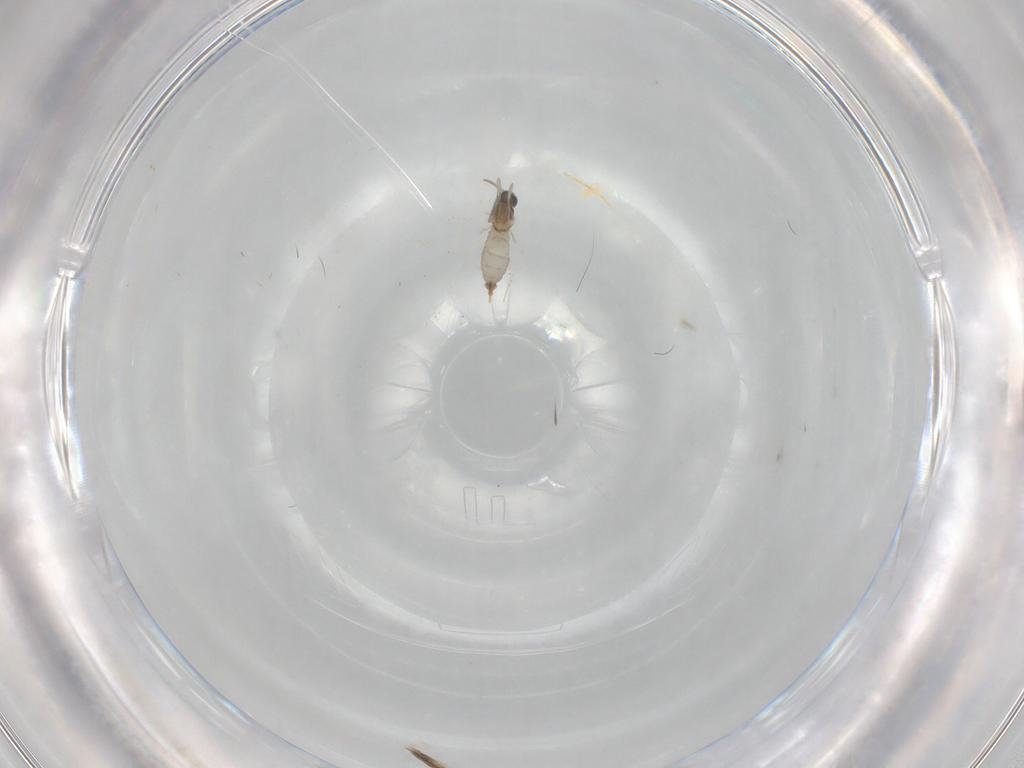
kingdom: Animalia
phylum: Arthropoda
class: Insecta
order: Diptera
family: Cecidomyiidae
